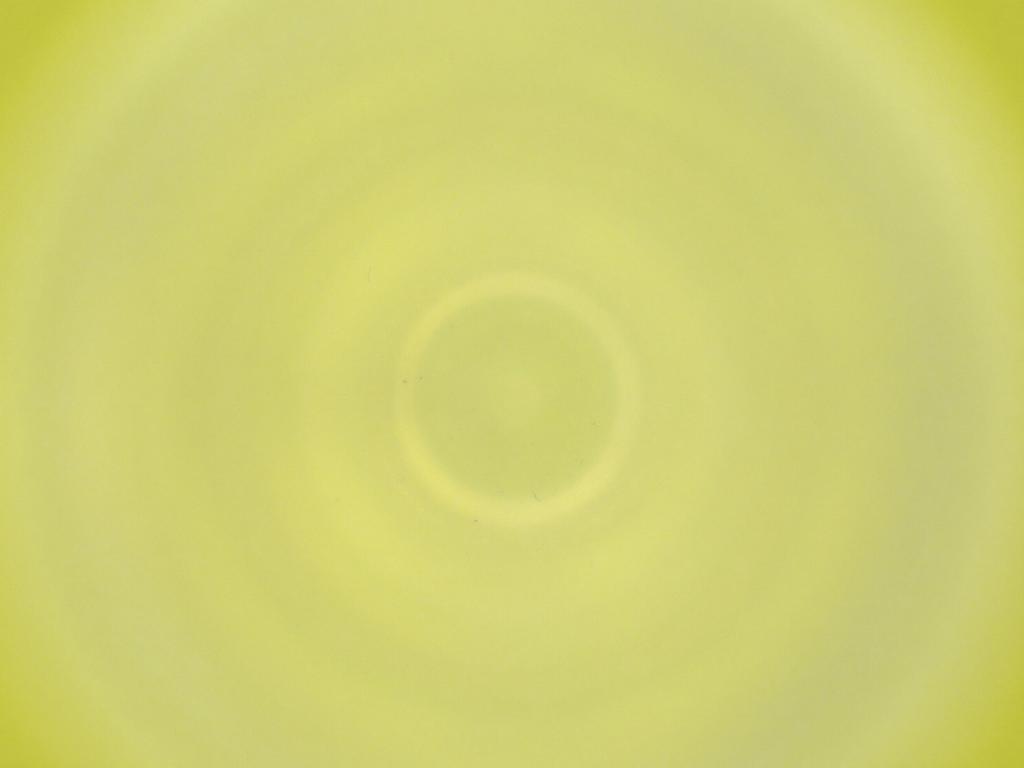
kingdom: Animalia
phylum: Arthropoda
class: Insecta
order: Diptera
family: Cecidomyiidae
